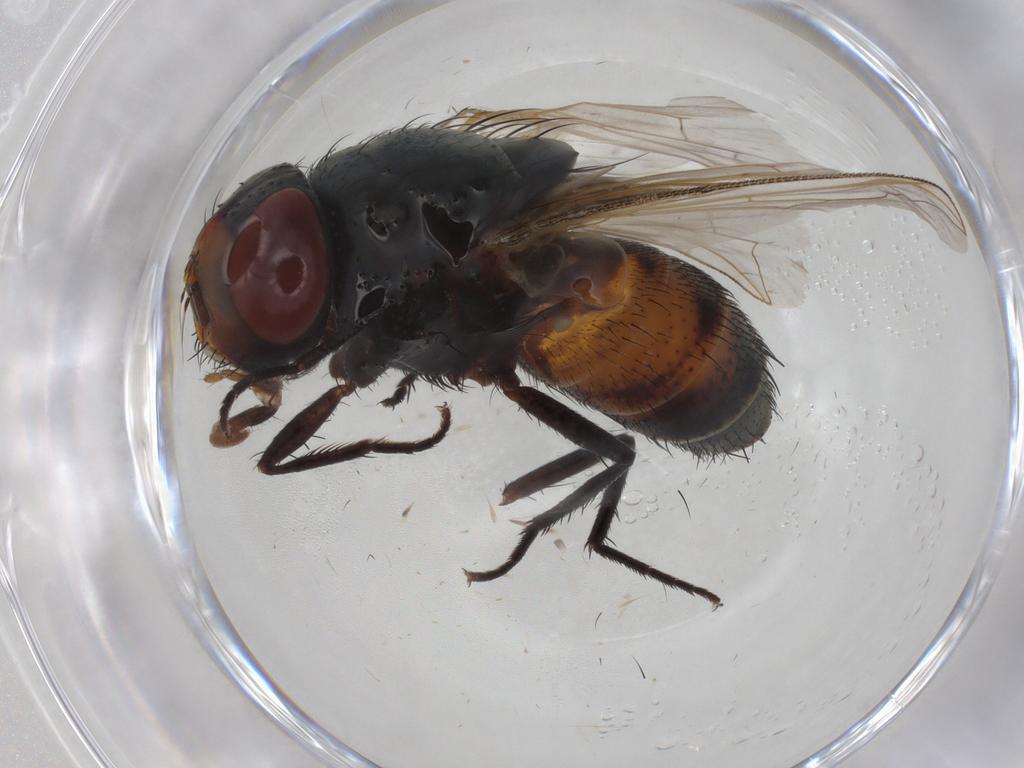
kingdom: Animalia
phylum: Arthropoda
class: Insecta
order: Diptera
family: Sarcophagidae
